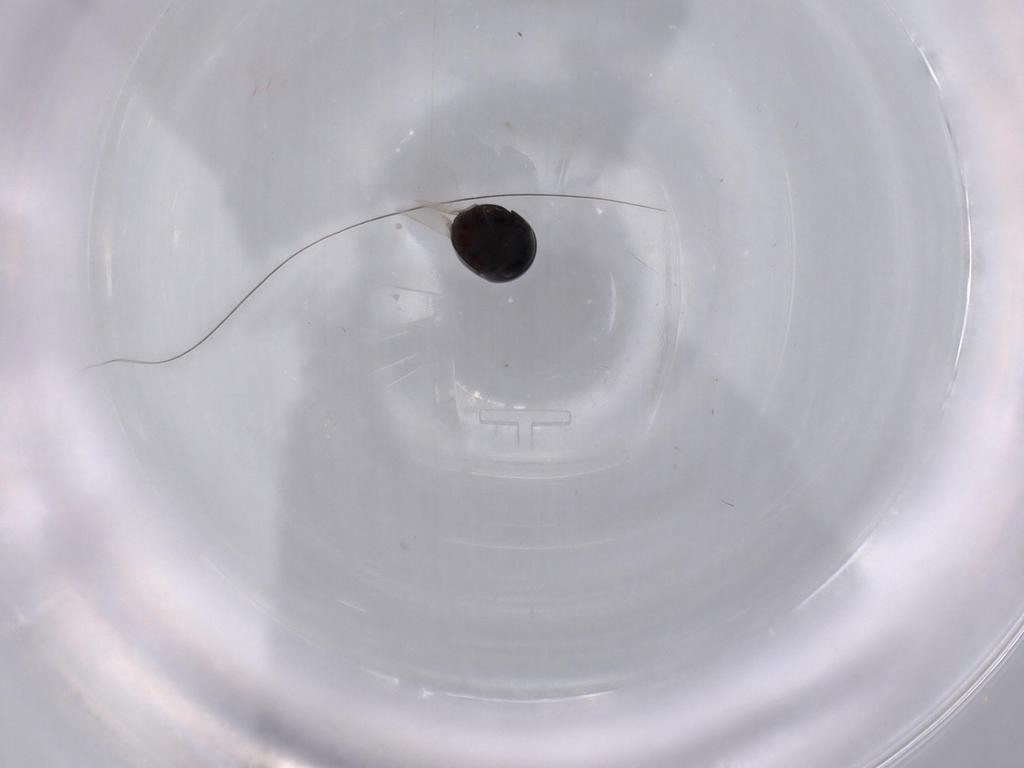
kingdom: Animalia
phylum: Arthropoda
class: Insecta
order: Coleoptera
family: Cybocephalidae
